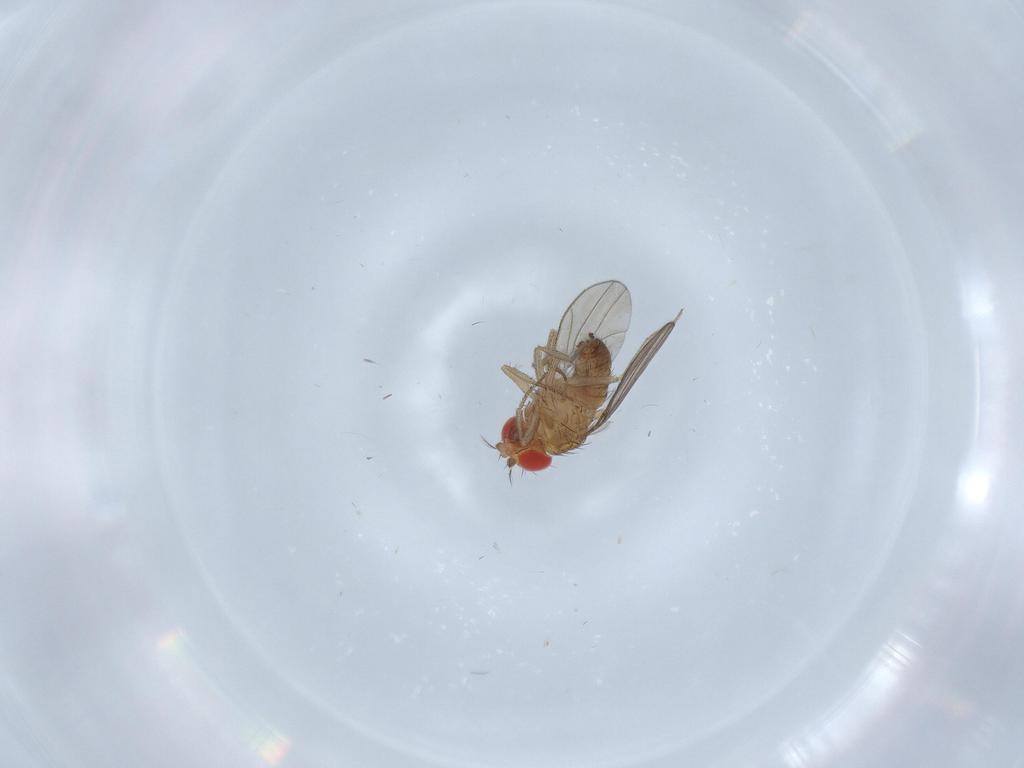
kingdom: Animalia
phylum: Arthropoda
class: Insecta
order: Diptera
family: Drosophilidae
